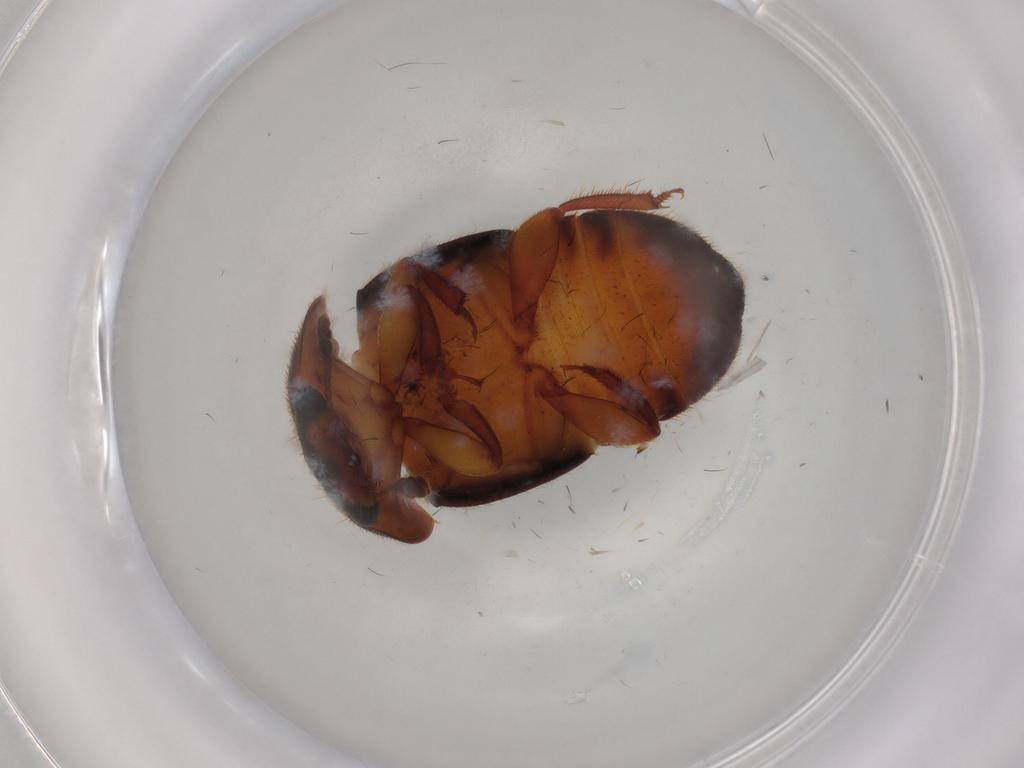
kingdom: Animalia
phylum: Arthropoda
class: Insecta
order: Coleoptera
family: Nitidulidae
